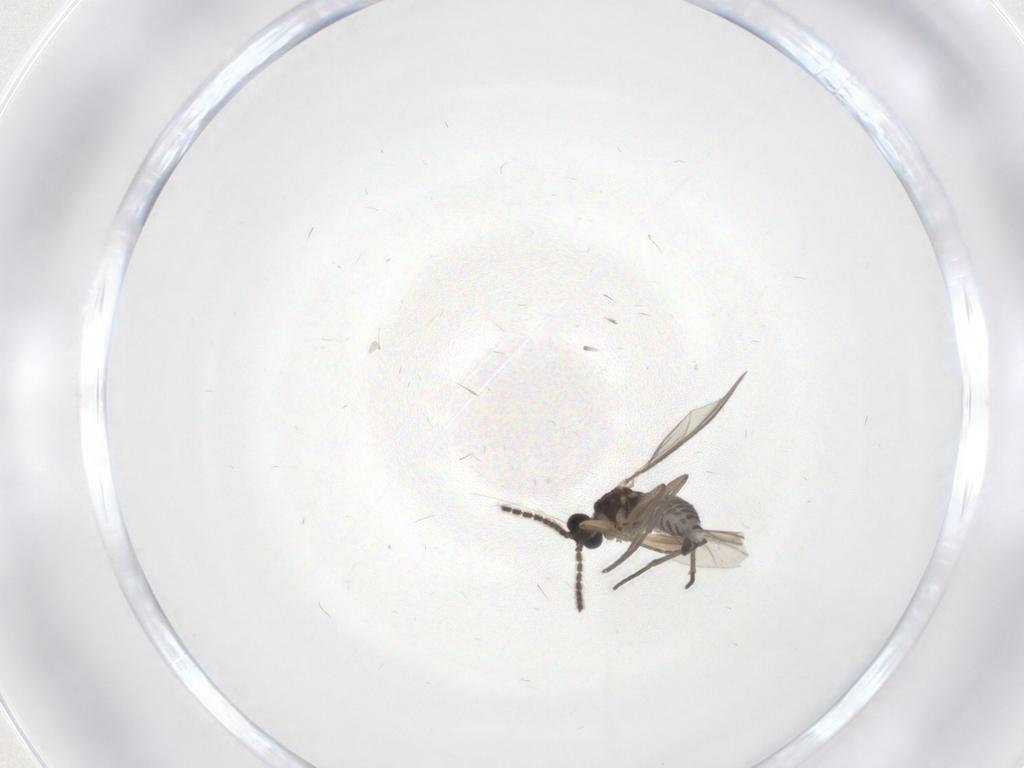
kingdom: Animalia
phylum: Arthropoda
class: Insecta
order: Diptera
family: Sciaridae
